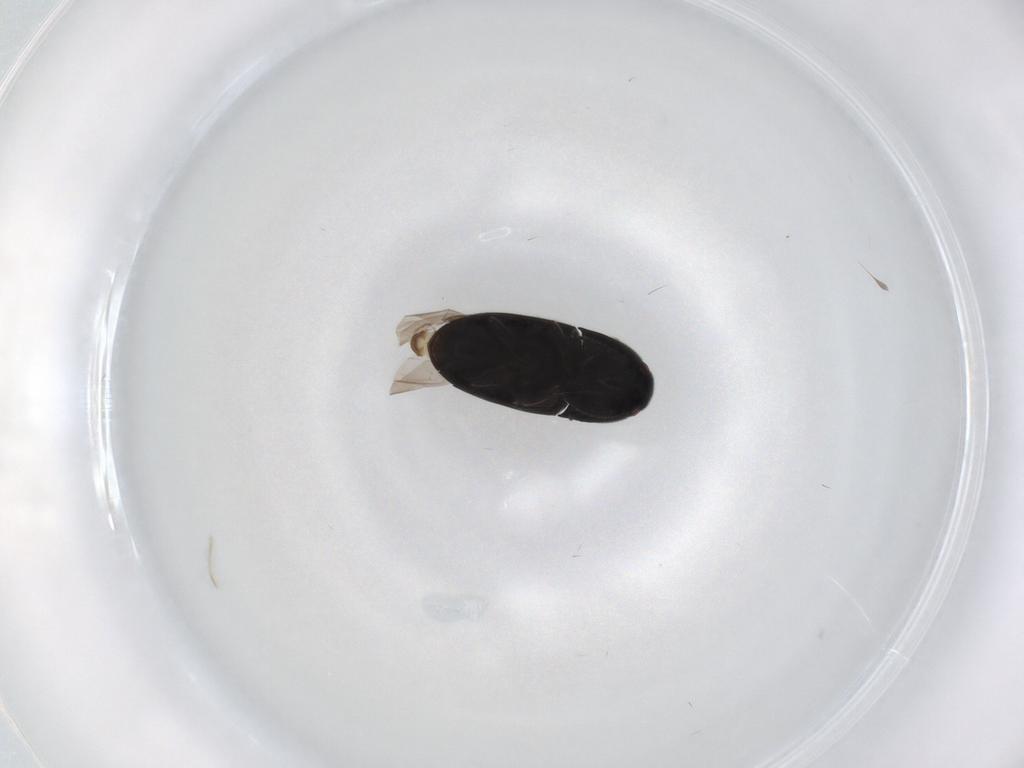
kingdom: Animalia
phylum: Arthropoda
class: Insecta
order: Coleoptera
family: Elateridae
